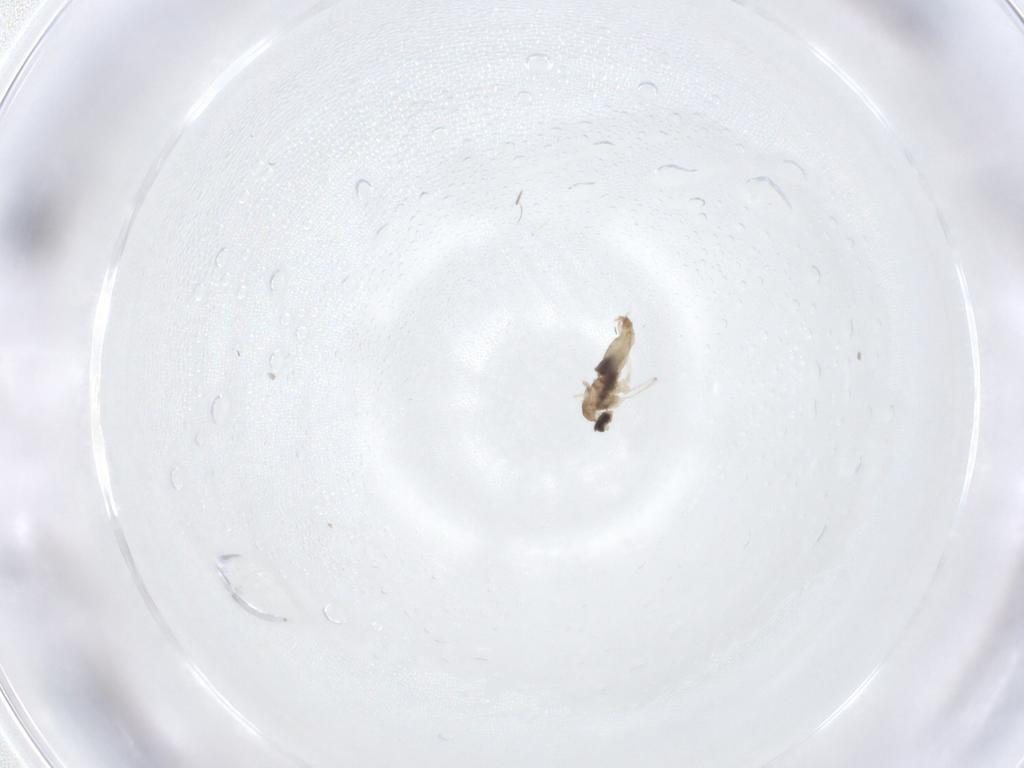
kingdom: Animalia
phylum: Arthropoda
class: Insecta
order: Diptera
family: Cecidomyiidae
